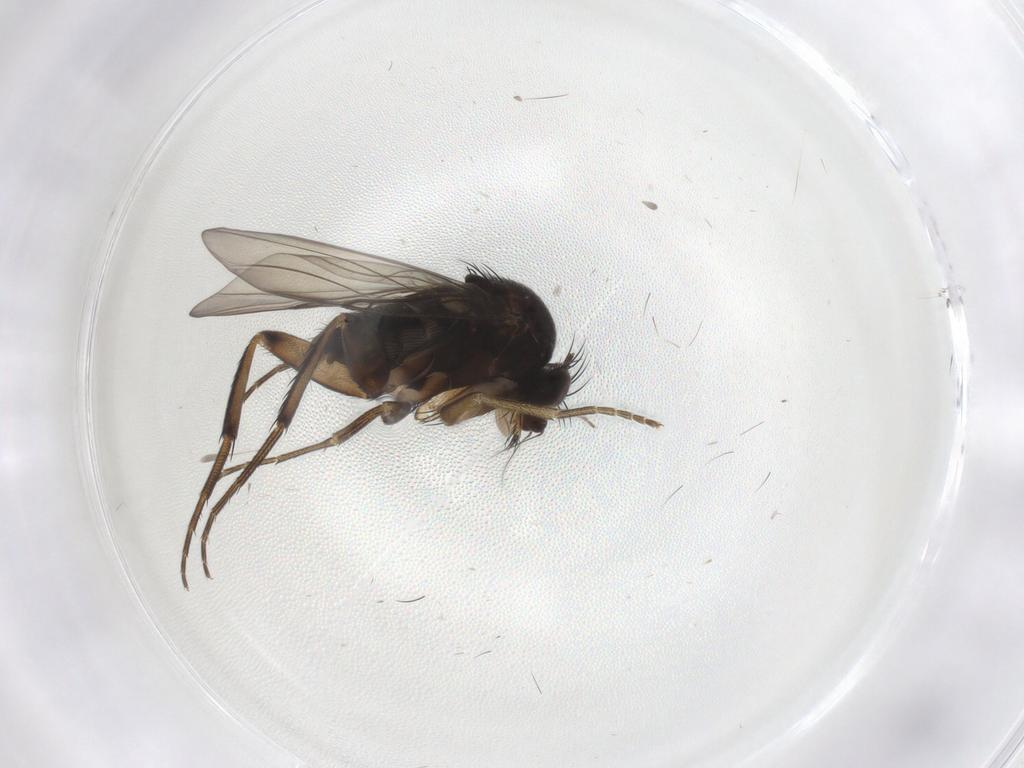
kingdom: Animalia
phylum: Arthropoda
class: Insecta
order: Diptera
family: Phoridae
